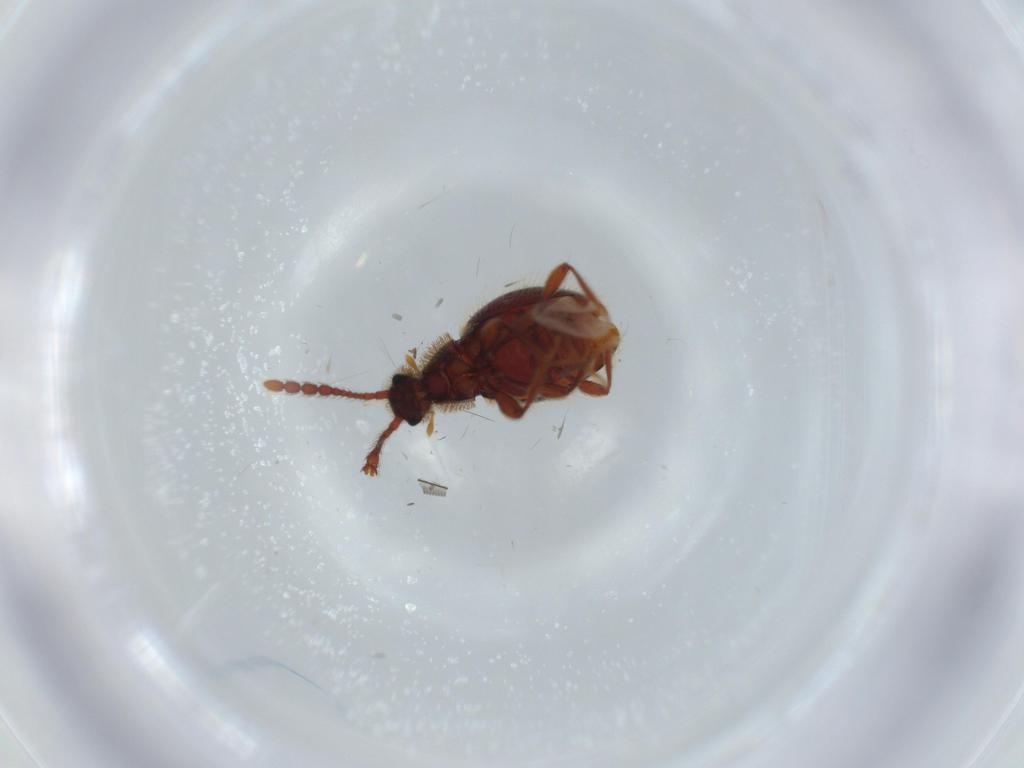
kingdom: Animalia
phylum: Arthropoda
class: Insecta
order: Coleoptera
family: Staphylinidae
